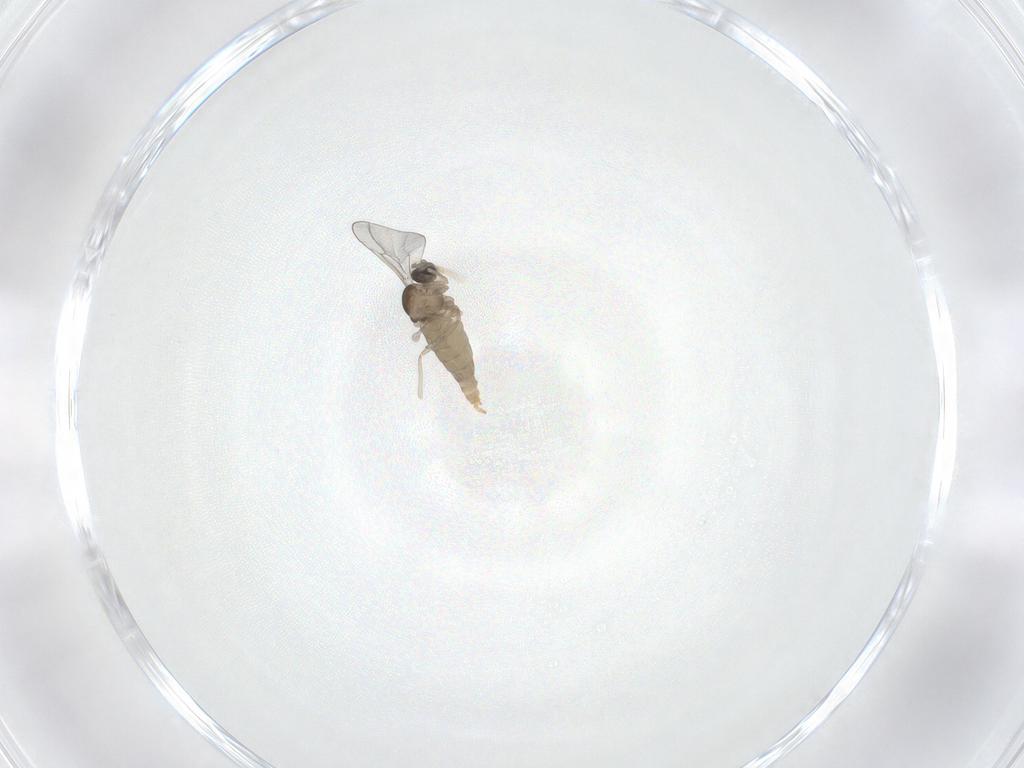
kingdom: Animalia
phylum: Arthropoda
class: Insecta
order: Diptera
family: Cecidomyiidae
